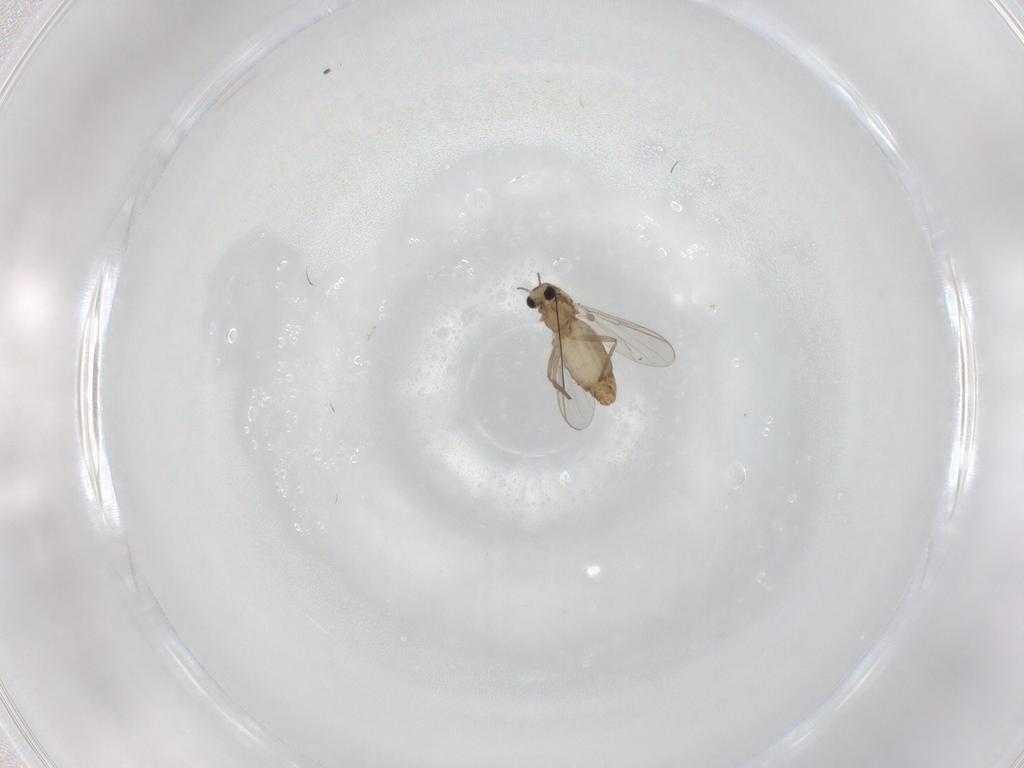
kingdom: Animalia
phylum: Arthropoda
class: Insecta
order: Diptera
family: Chironomidae
